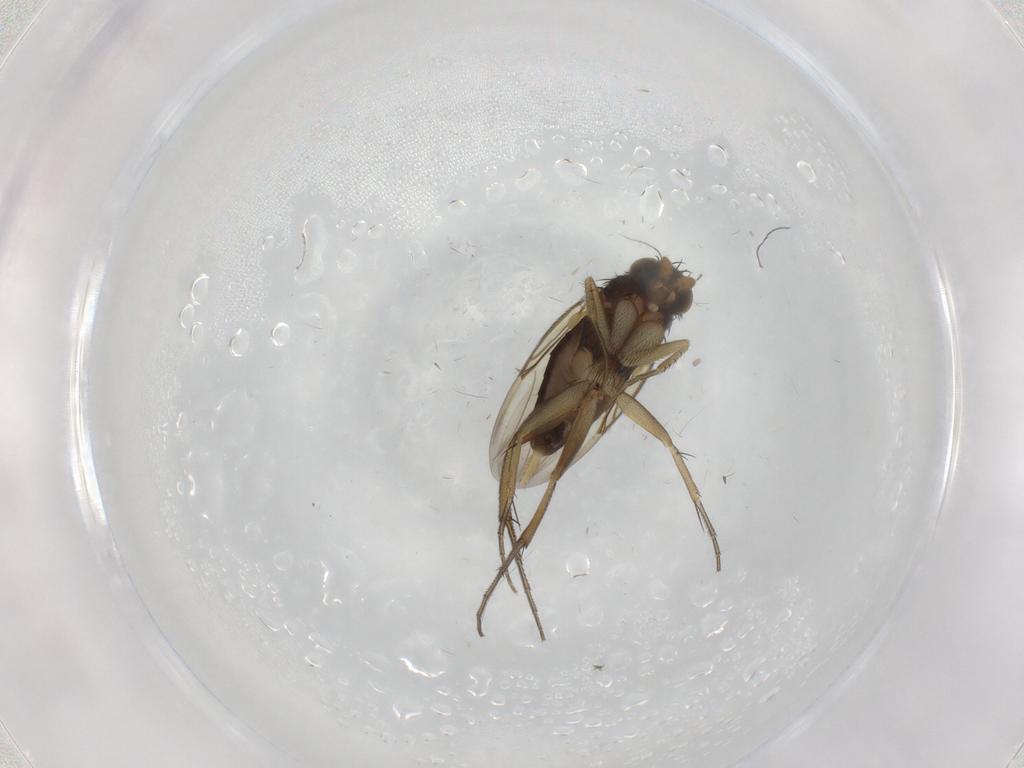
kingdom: Animalia
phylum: Arthropoda
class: Insecta
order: Diptera
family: Phoridae
